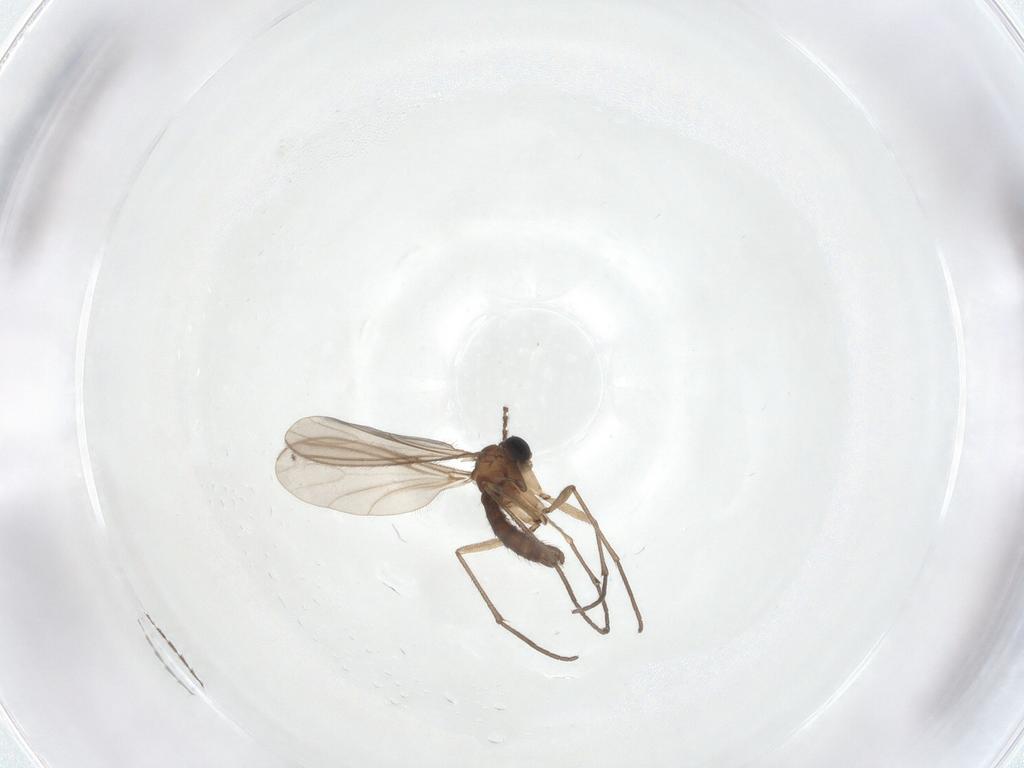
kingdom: Animalia
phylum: Arthropoda
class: Insecta
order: Diptera
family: Sciaridae
